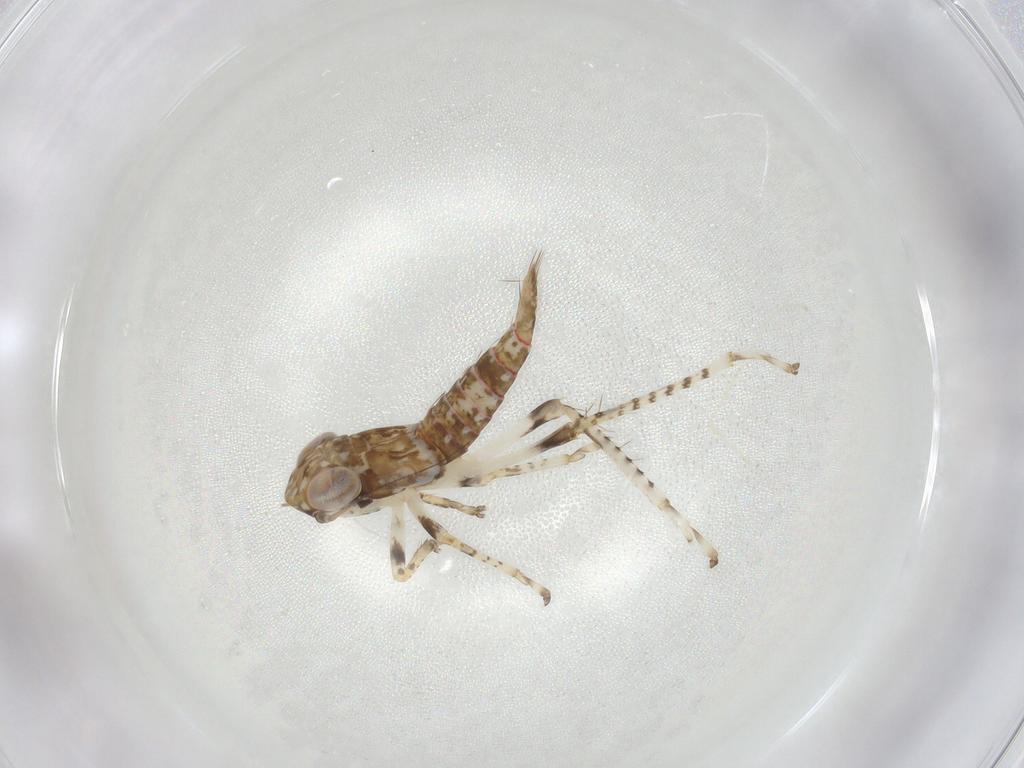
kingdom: Animalia
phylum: Arthropoda
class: Insecta
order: Hemiptera
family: Cicadellidae
